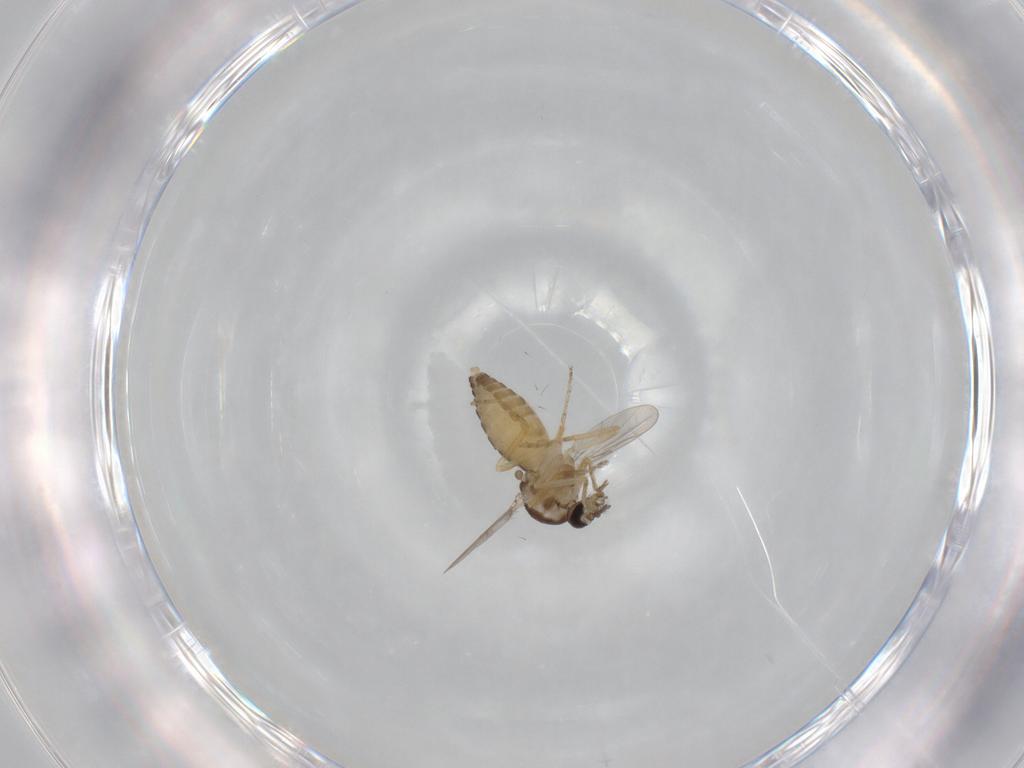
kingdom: Animalia
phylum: Arthropoda
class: Insecta
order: Diptera
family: Ceratopogonidae
